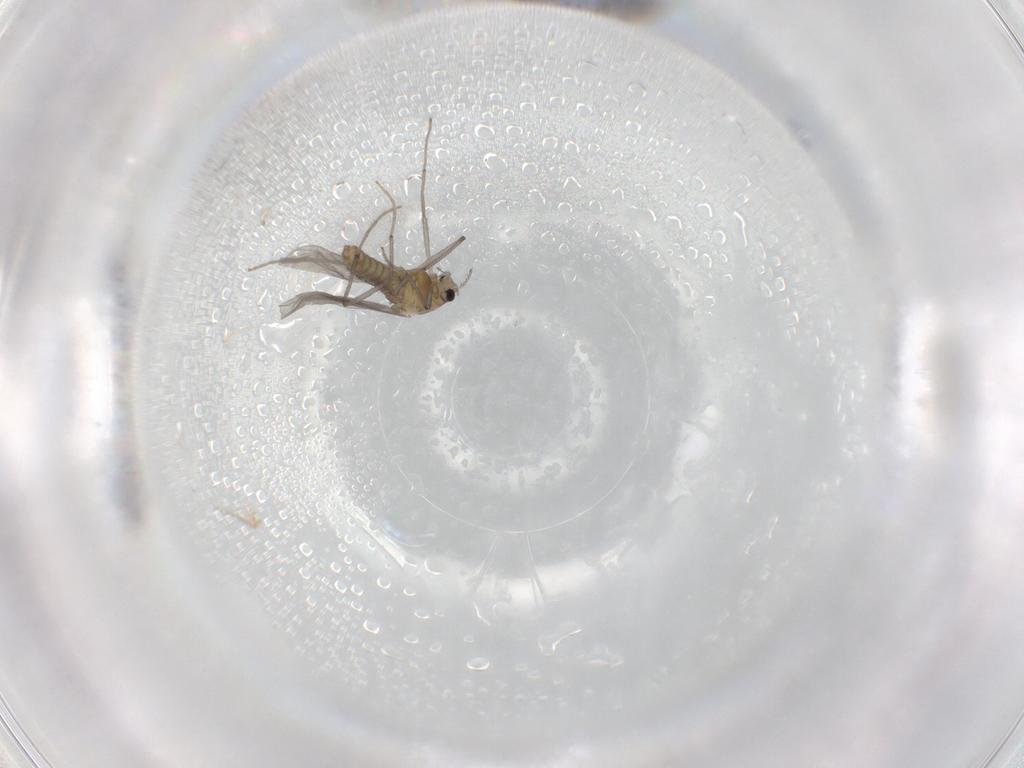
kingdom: Animalia
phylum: Arthropoda
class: Insecta
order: Diptera
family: Chironomidae
